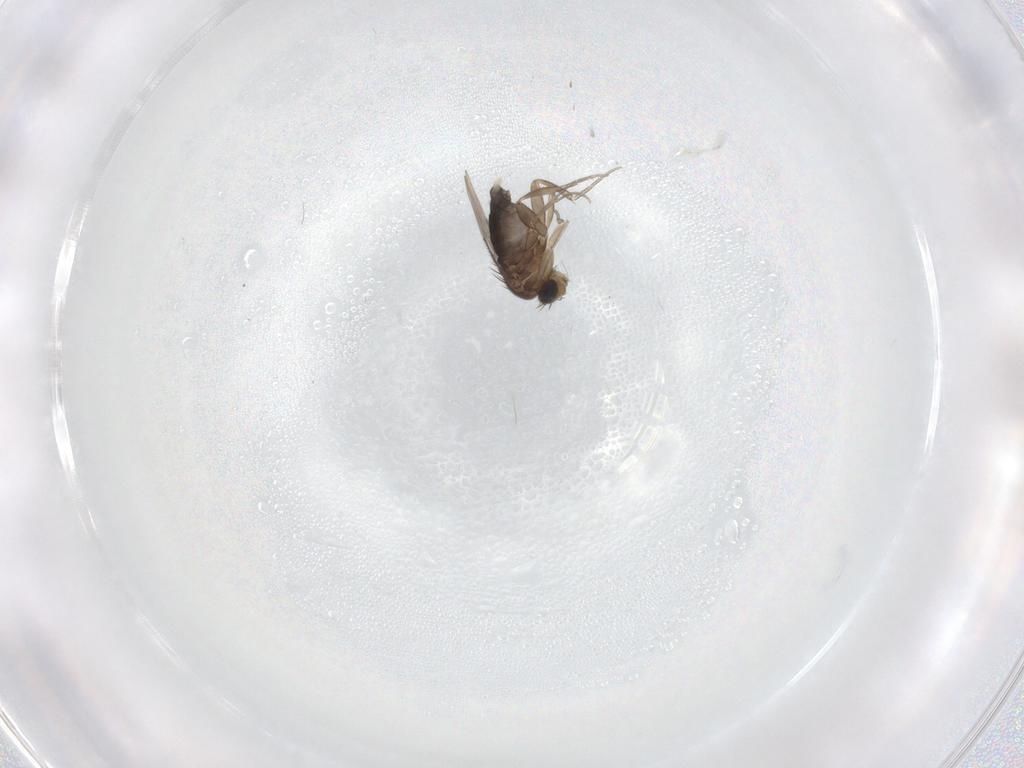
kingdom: Animalia
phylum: Arthropoda
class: Insecta
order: Diptera
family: Phoridae
